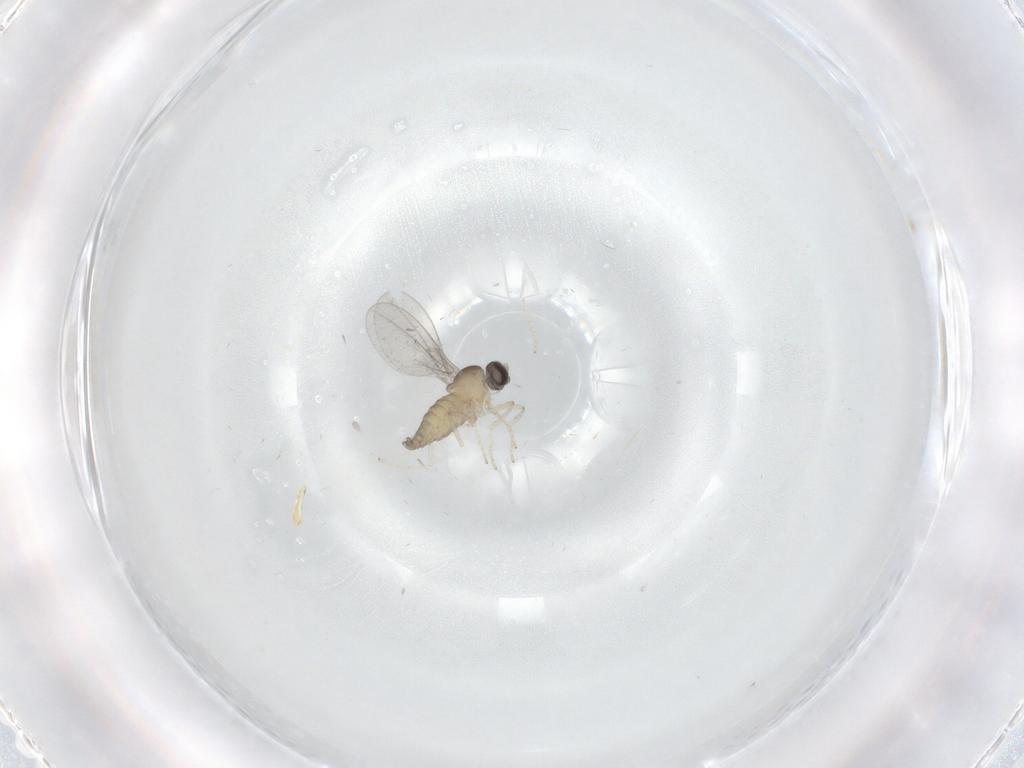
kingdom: Animalia
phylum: Arthropoda
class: Insecta
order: Diptera
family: Cecidomyiidae
